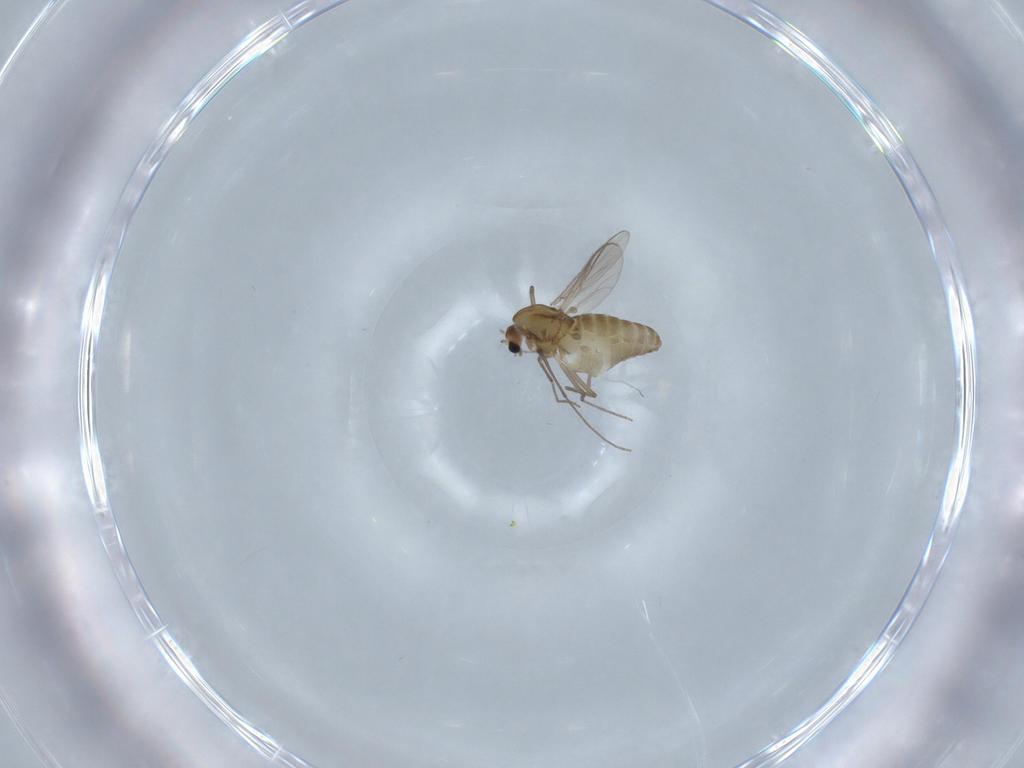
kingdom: Animalia
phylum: Arthropoda
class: Insecta
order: Diptera
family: Chironomidae
